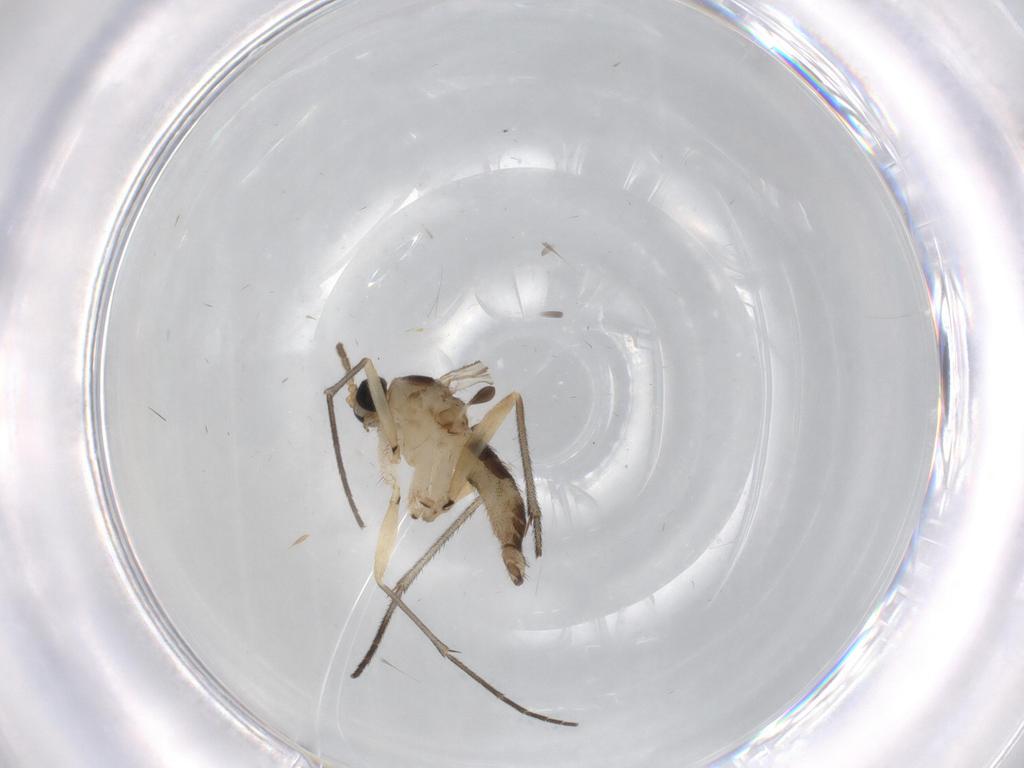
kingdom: Animalia
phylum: Arthropoda
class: Insecta
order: Diptera
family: Sciaridae
